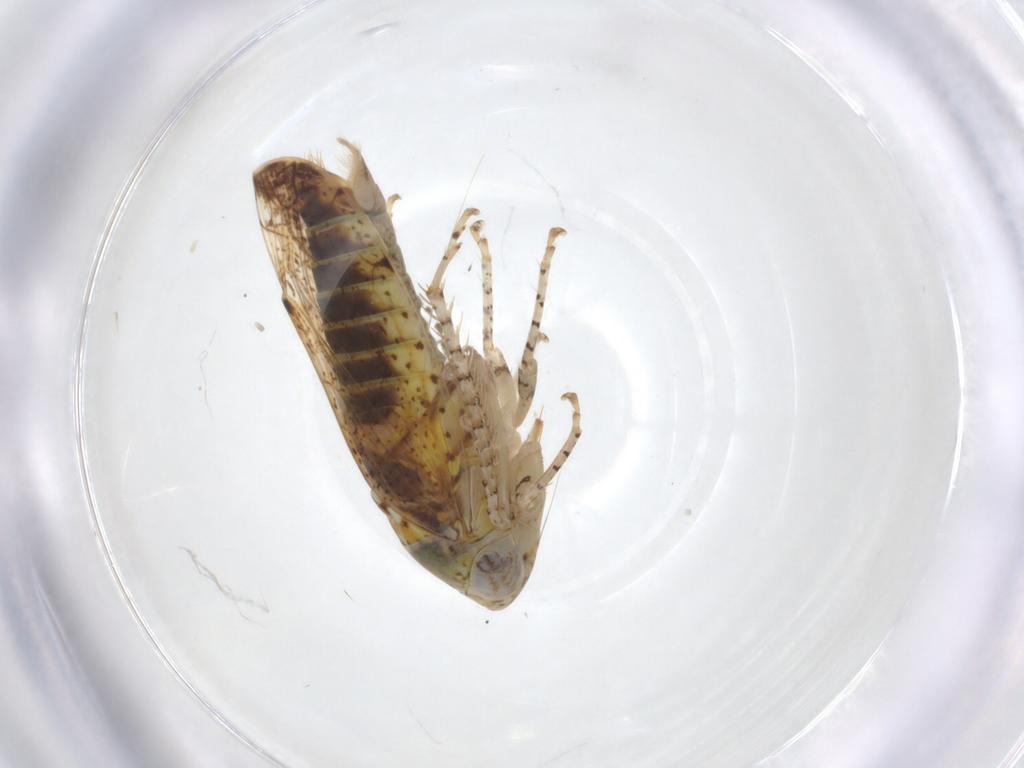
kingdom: Animalia
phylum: Arthropoda
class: Insecta
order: Hemiptera
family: Cicadellidae
